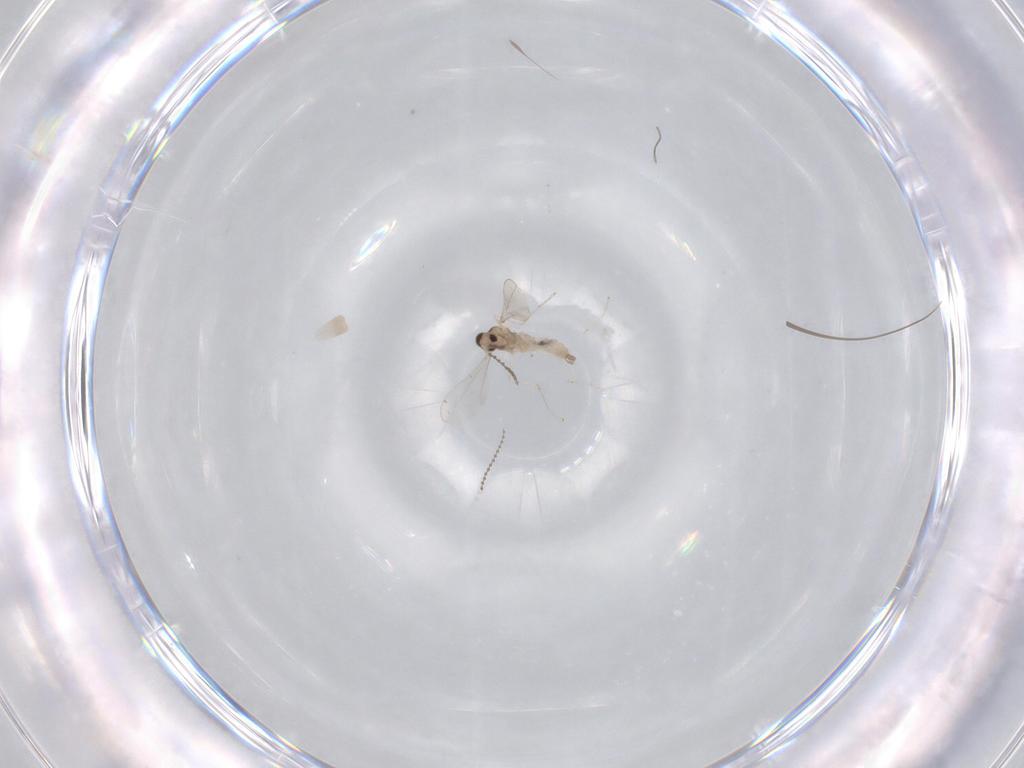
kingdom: Animalia
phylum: Arthropoda
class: Insecta
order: Diptera
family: Cecidomyiidae
